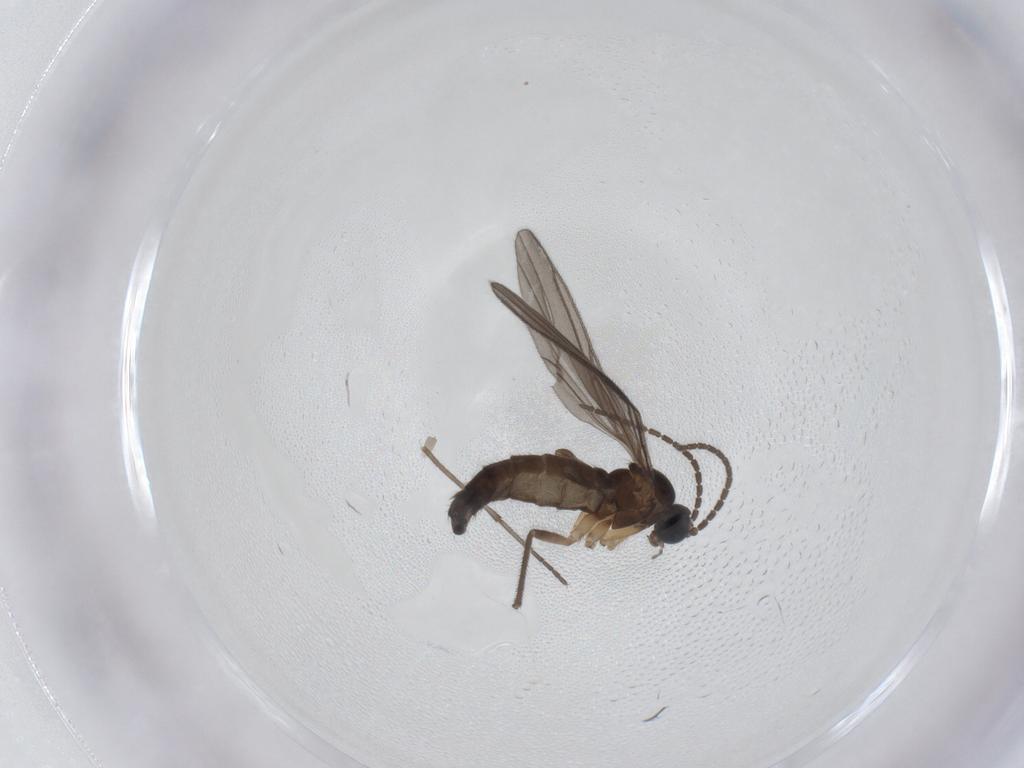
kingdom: Animalia
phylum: Arthropoda
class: Insecta
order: Diptera
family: Sciaridae
